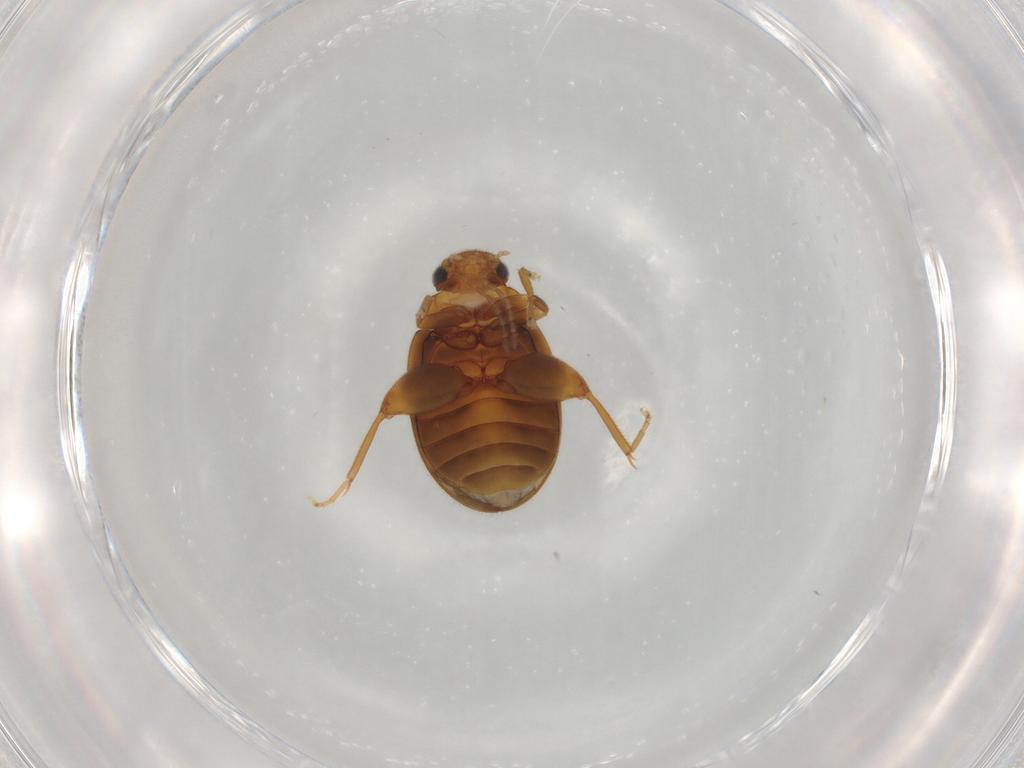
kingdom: Animalia
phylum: Arthropoda
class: Insecta
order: Coleoptera
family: Scirtidae
